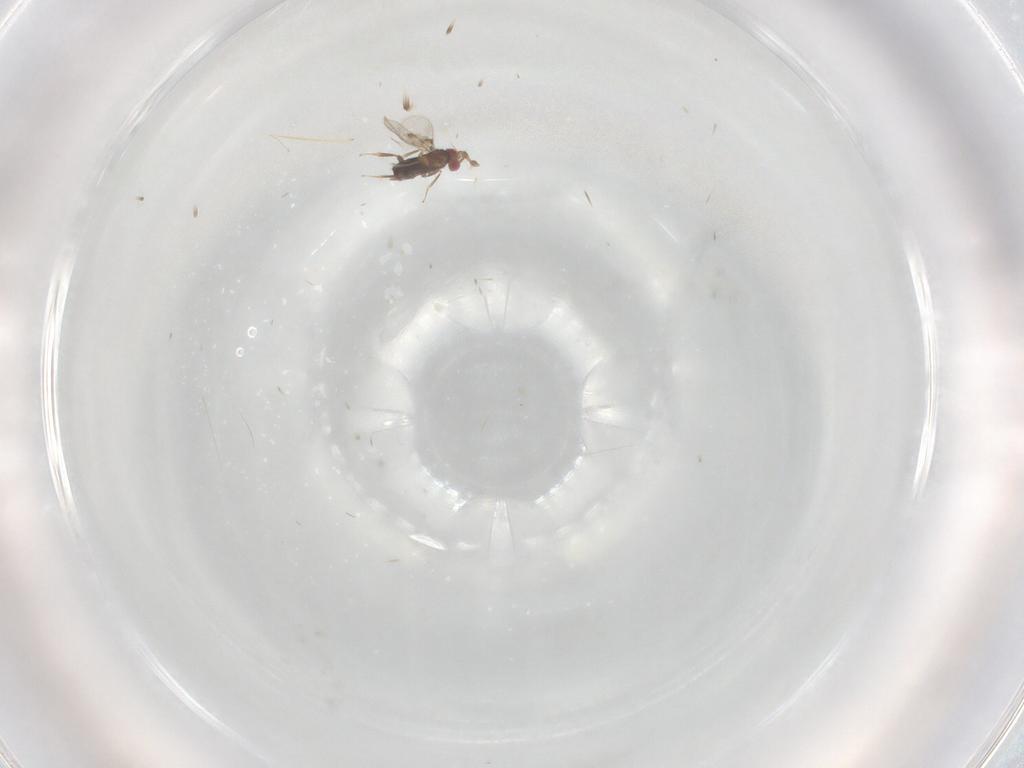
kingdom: Animalia
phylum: Arthropoda
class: Insecta
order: Hymenoptera
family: Trichogrammatidae
